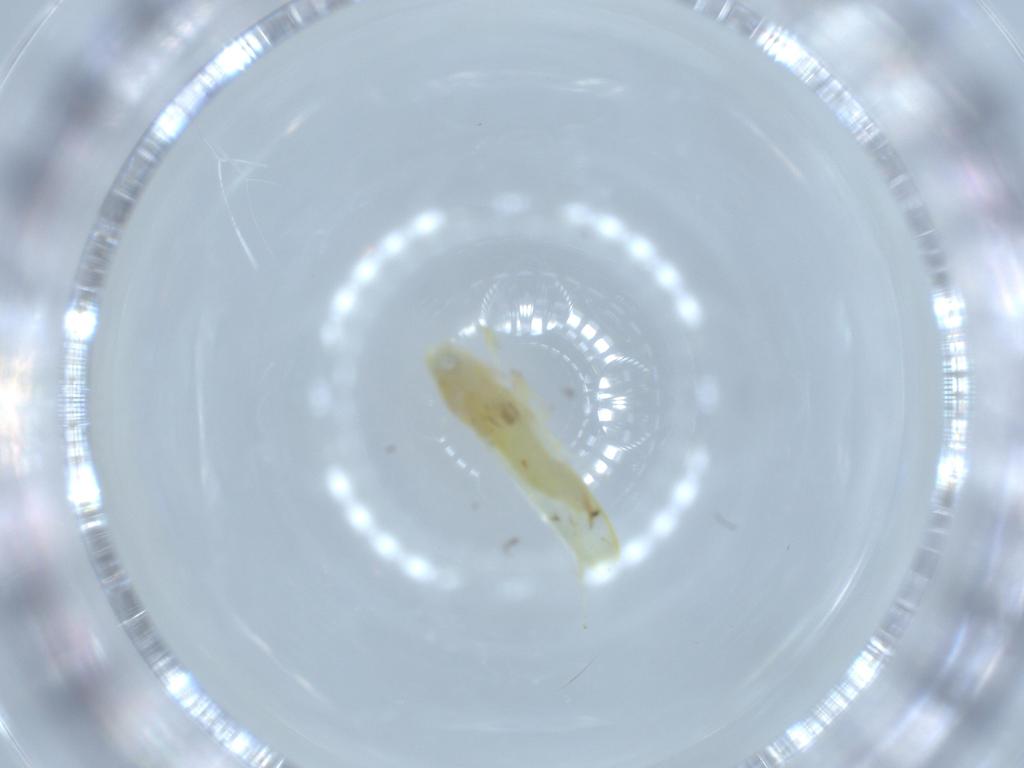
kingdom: Animalia
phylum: Arthropoda
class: Insecta
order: Hemiptera
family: Cicadellidae
